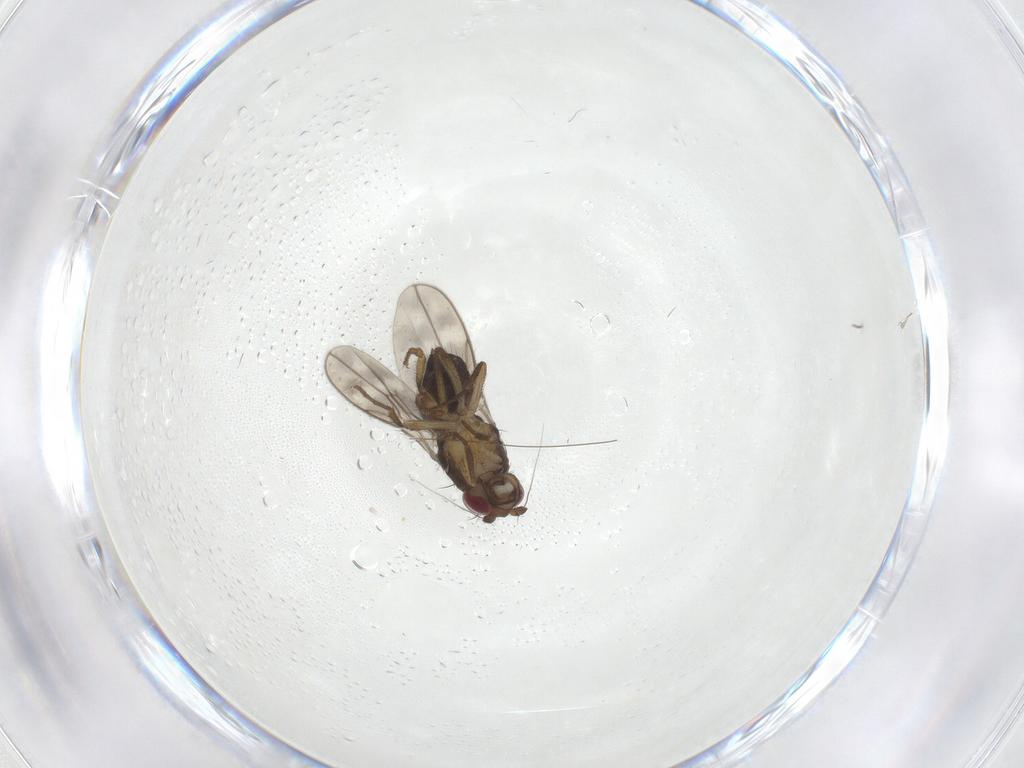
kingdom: Animalia
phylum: Arthropoda
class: Insecta
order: Diptera
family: Sphaeroceridae
